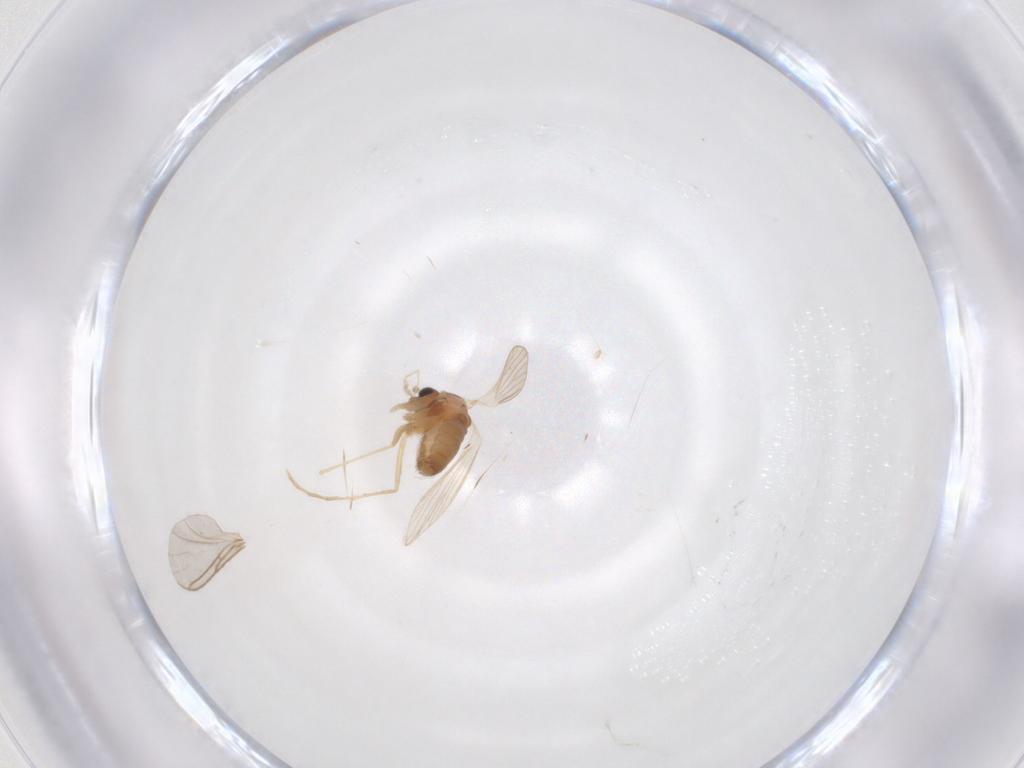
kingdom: Animalia
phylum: Arthropoda
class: Insecta
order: Diptera
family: Psychodidae
